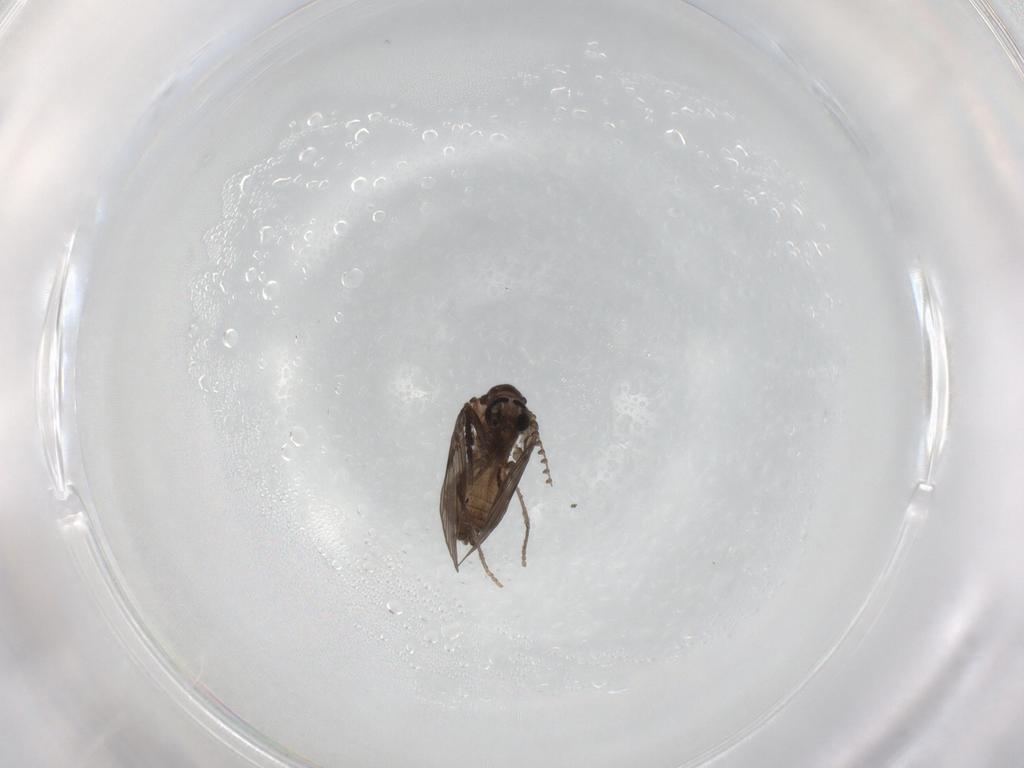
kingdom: Animalia
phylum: Arthropoda
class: Insecta
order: Diptera
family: Psychodidae
